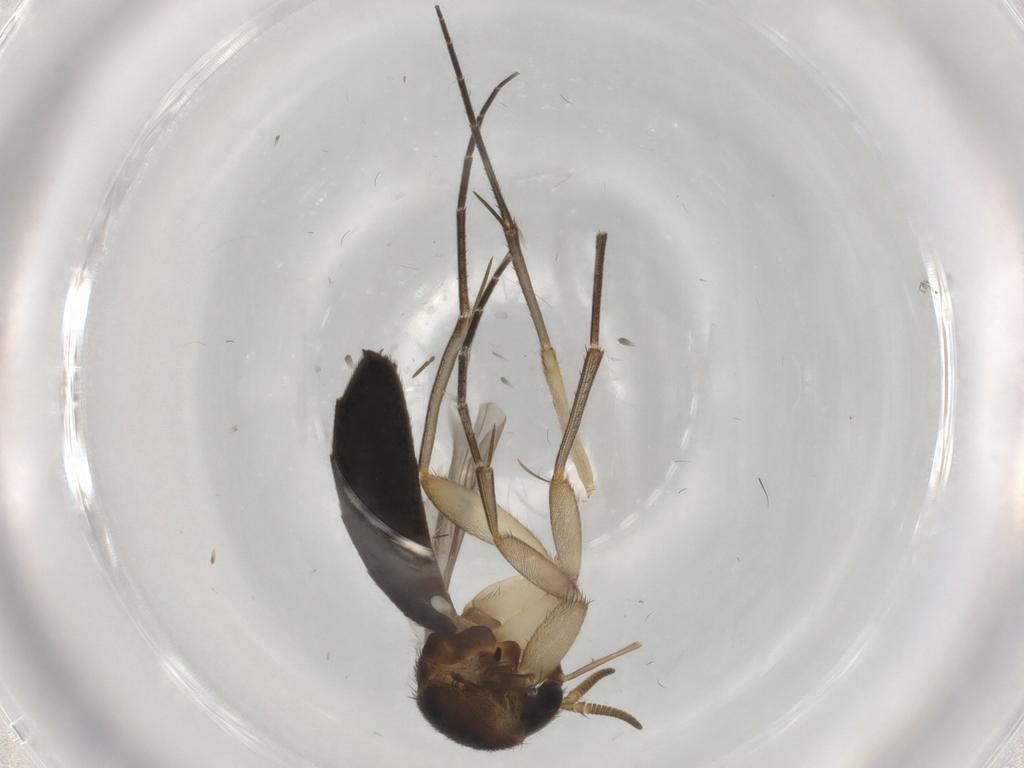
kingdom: Animalia
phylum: Arthropoda
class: Insecta
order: Diptera
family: Mycetophilidae
